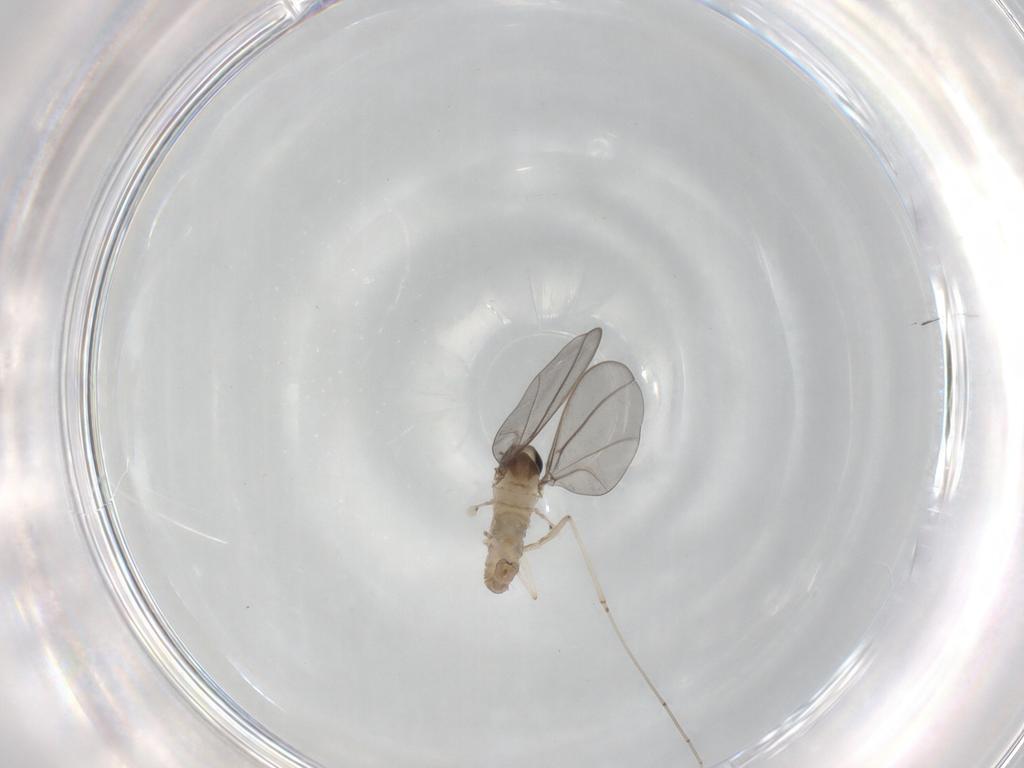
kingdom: Animalia
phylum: Arthropoda
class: Insecta
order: Diptera
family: Cecidomyiidae
